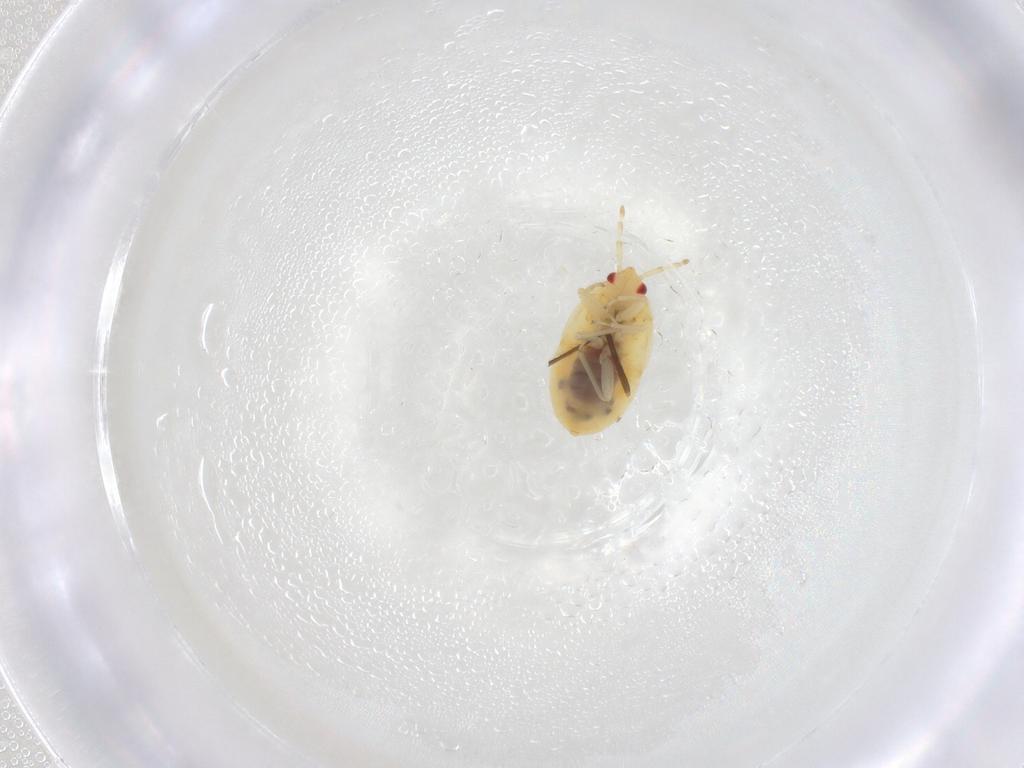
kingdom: Animalia
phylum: Arthropoda
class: Insecta
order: Hemiptera
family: Anthocoridae
